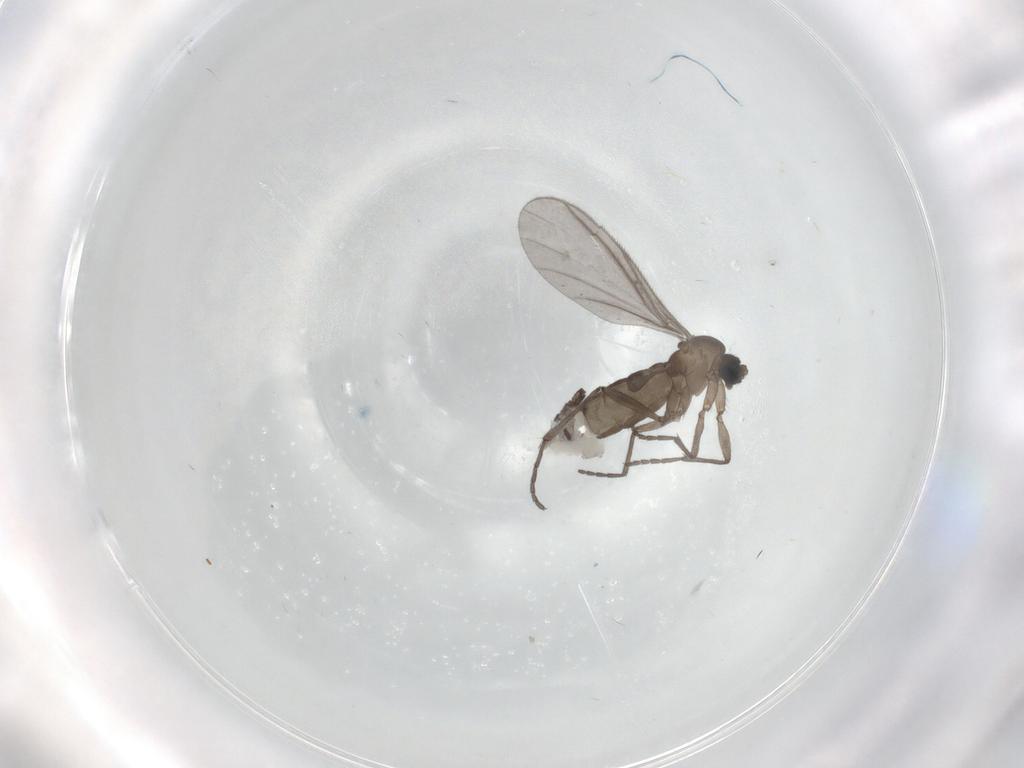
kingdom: Animalia
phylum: Arthropoda
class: Insecta
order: Diptera
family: Sciaridae
